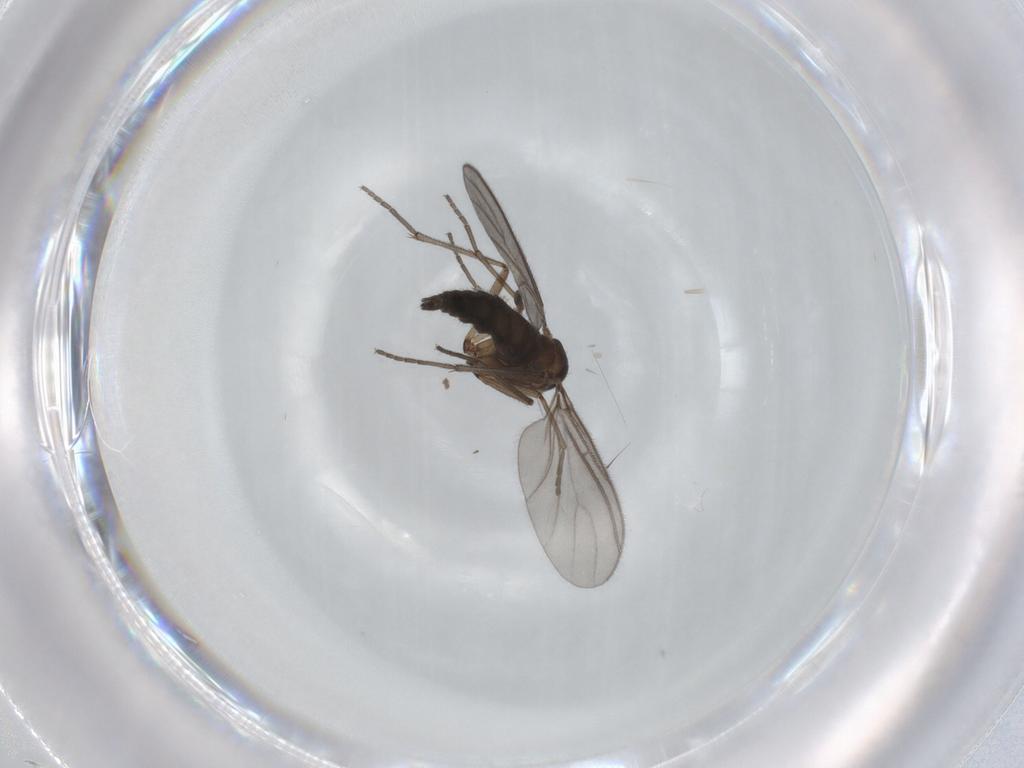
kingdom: Animalia
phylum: Arthropoda
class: Insecta
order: Diptera
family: Sciaridae
